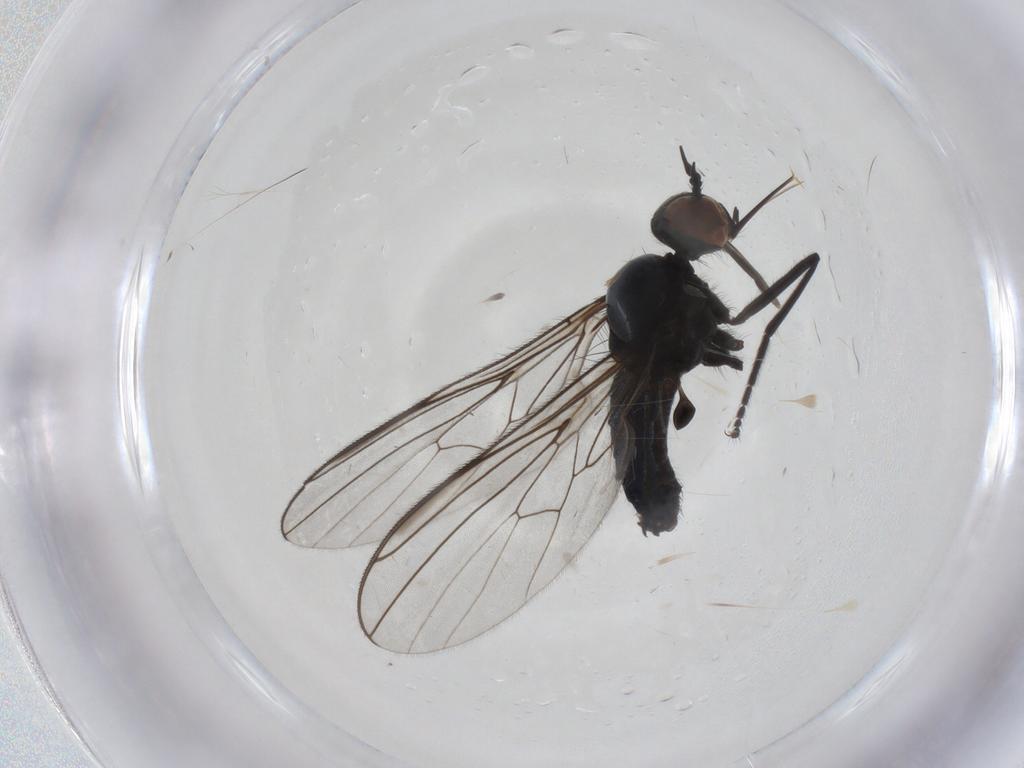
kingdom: Animalia
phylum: Arthropoda
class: Insecta
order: Diptera
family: Empididae
